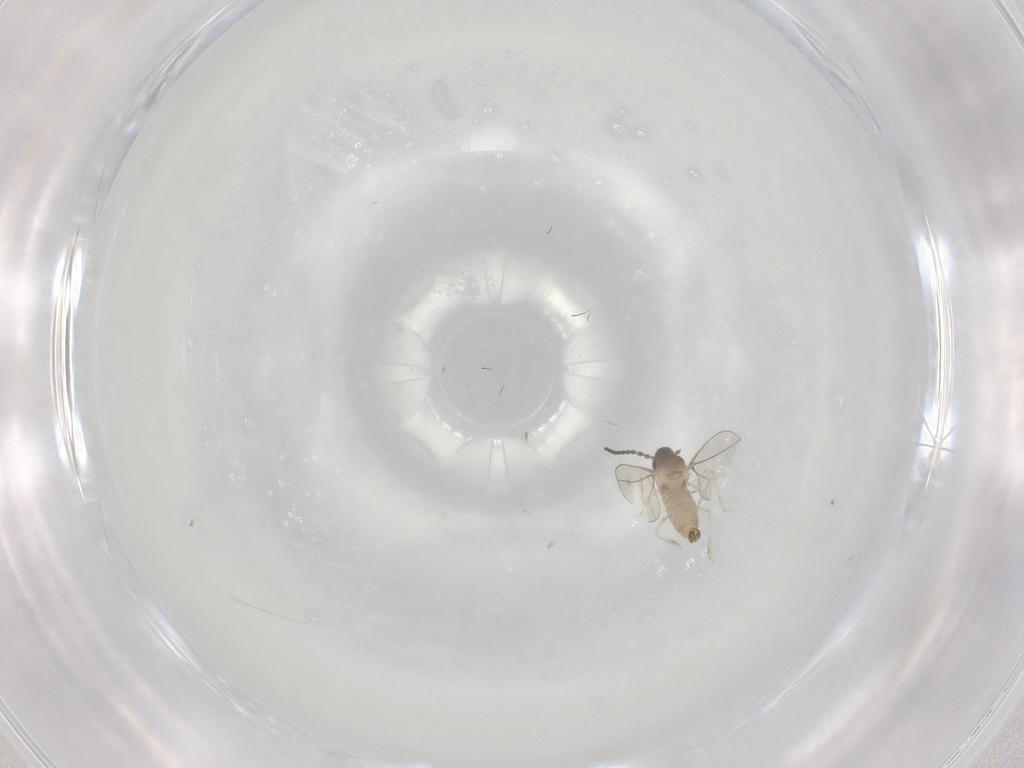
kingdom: Animalia
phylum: Arthropoda
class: Insecta
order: Diptera
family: Cecidomyiidae
